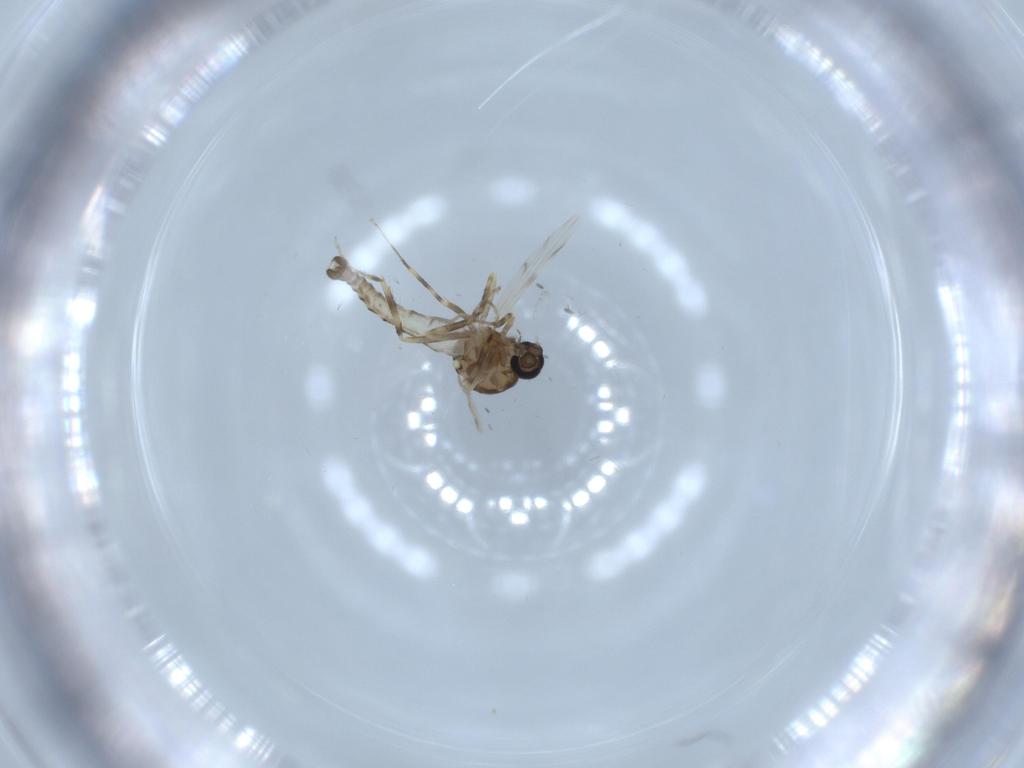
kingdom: Animalia
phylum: Arthropoda
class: Insecta
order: Diptera
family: Ceratopogonidae
